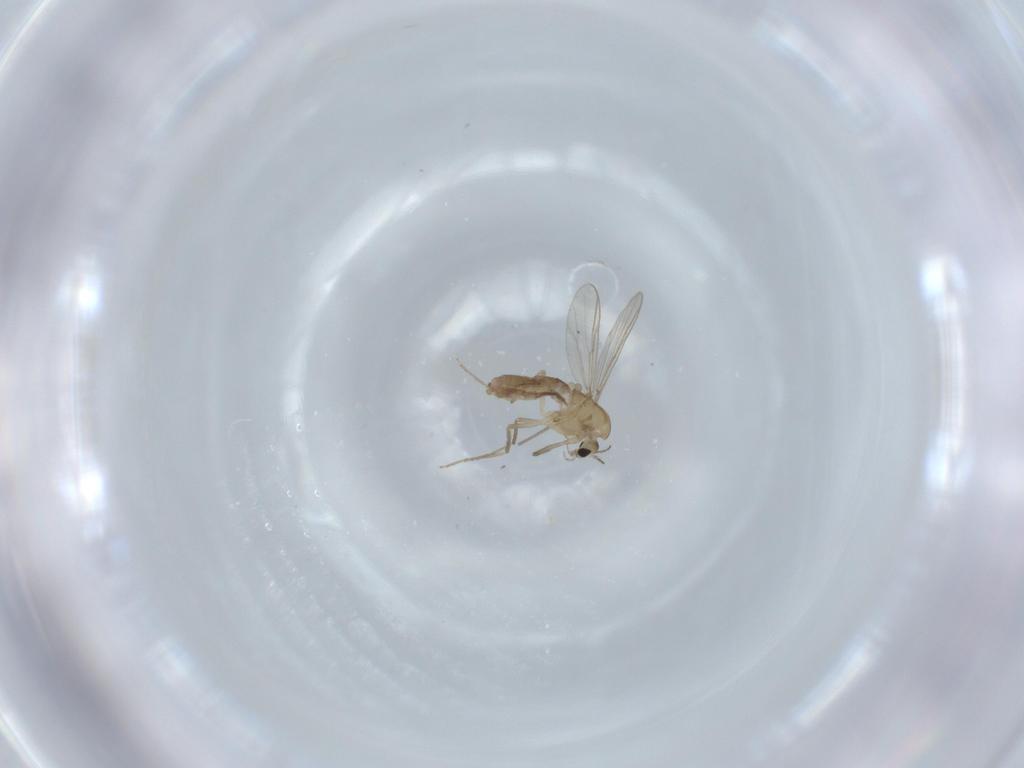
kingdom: Animalia
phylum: Arthropoda
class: Insecta
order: Diptera
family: Chironomidae
